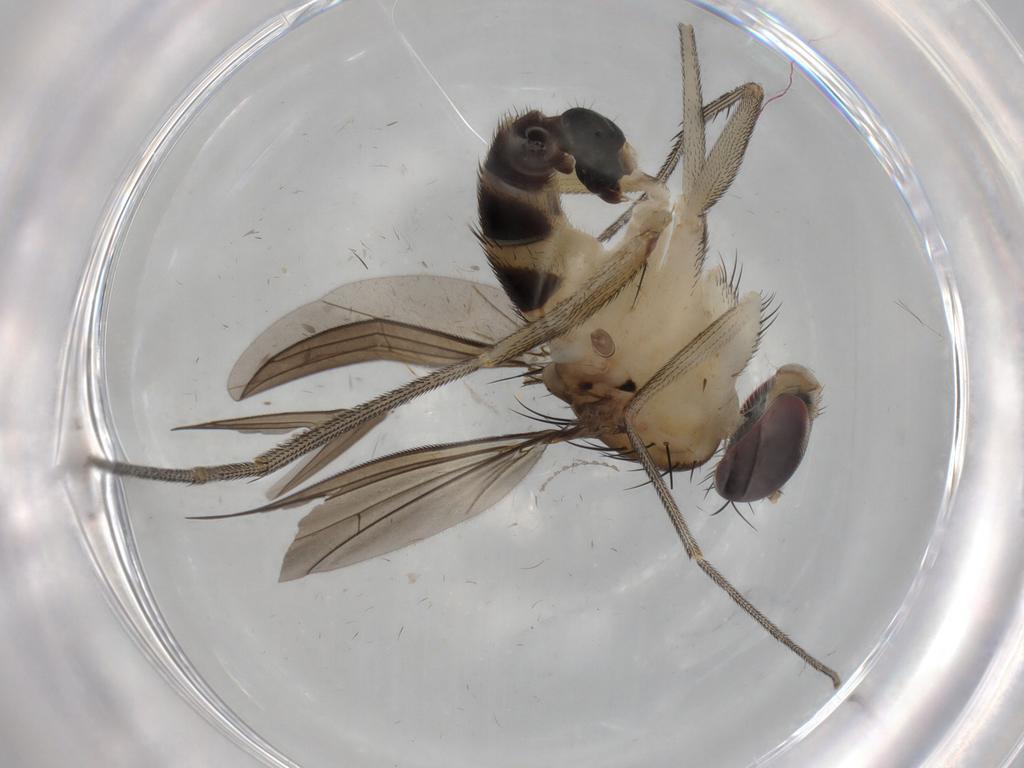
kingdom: Animalia
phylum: Arthropoda
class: Insecta
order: Diptera
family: Dolichopodidae
